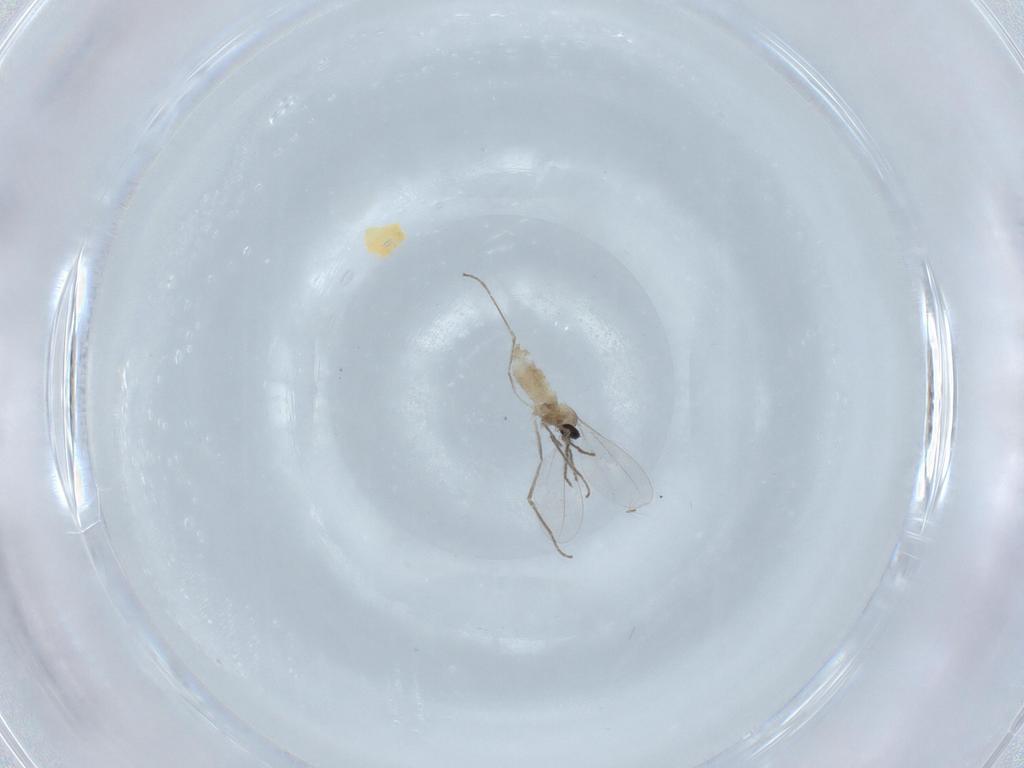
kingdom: Animalia
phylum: Arthropoda
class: Insecta
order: Diptera
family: Cecidomyiidae
